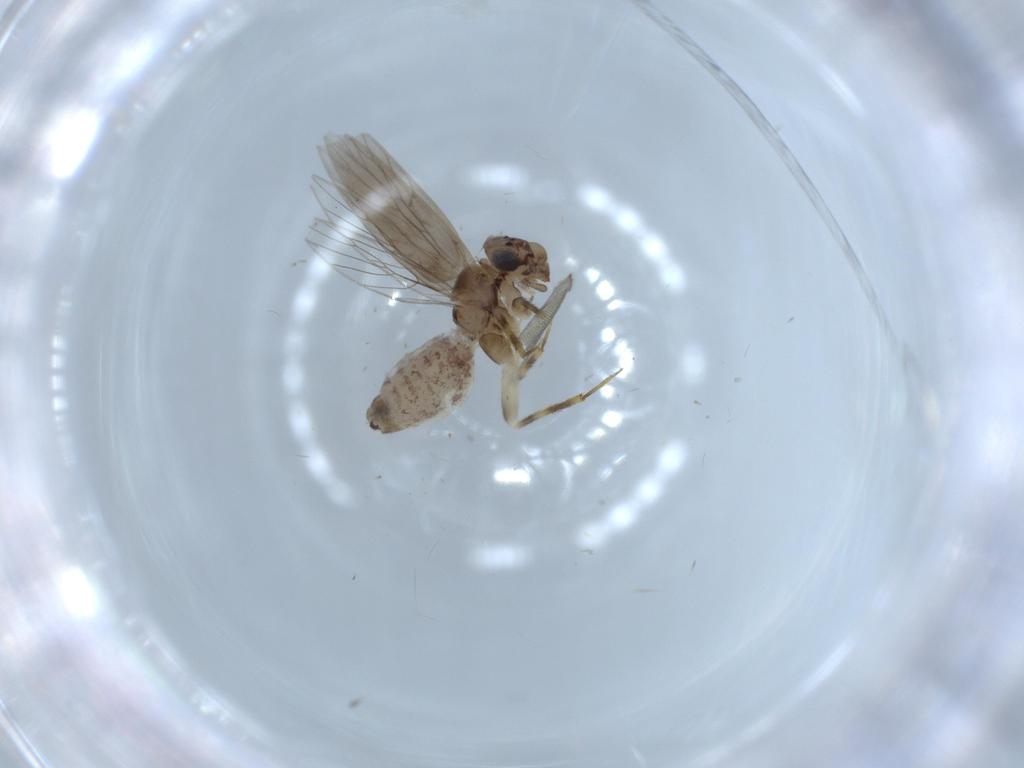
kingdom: Animalia
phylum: Arthropoda
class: Insecta
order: Psocodea
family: Lepidopsocidae
